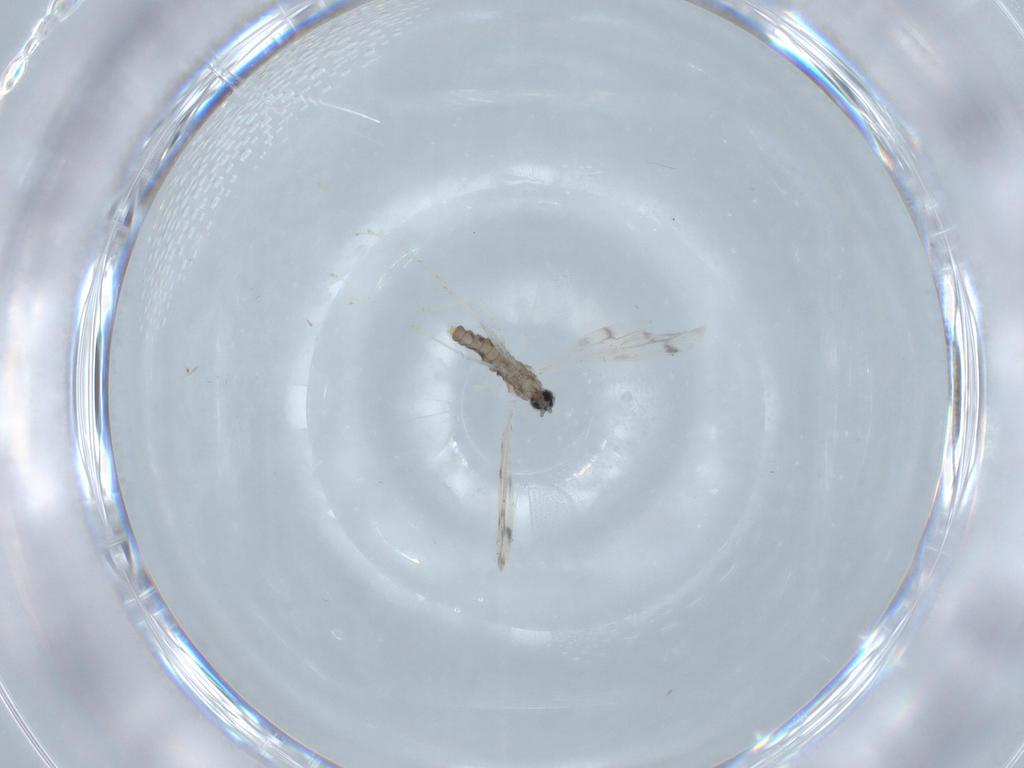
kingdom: Animalia
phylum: Arthropoda
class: Insecta
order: Diptera
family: Cecidomyiidae
